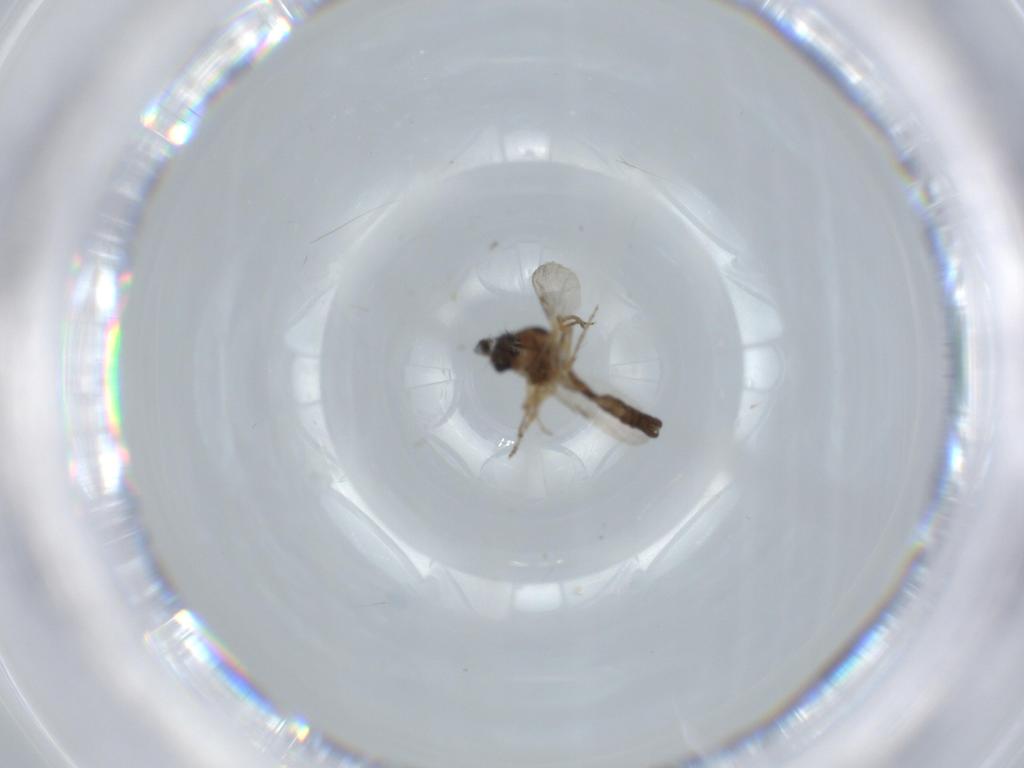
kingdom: Animalia
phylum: Arthropoda
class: Insecta
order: Diptera
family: Ceratopogonidae
